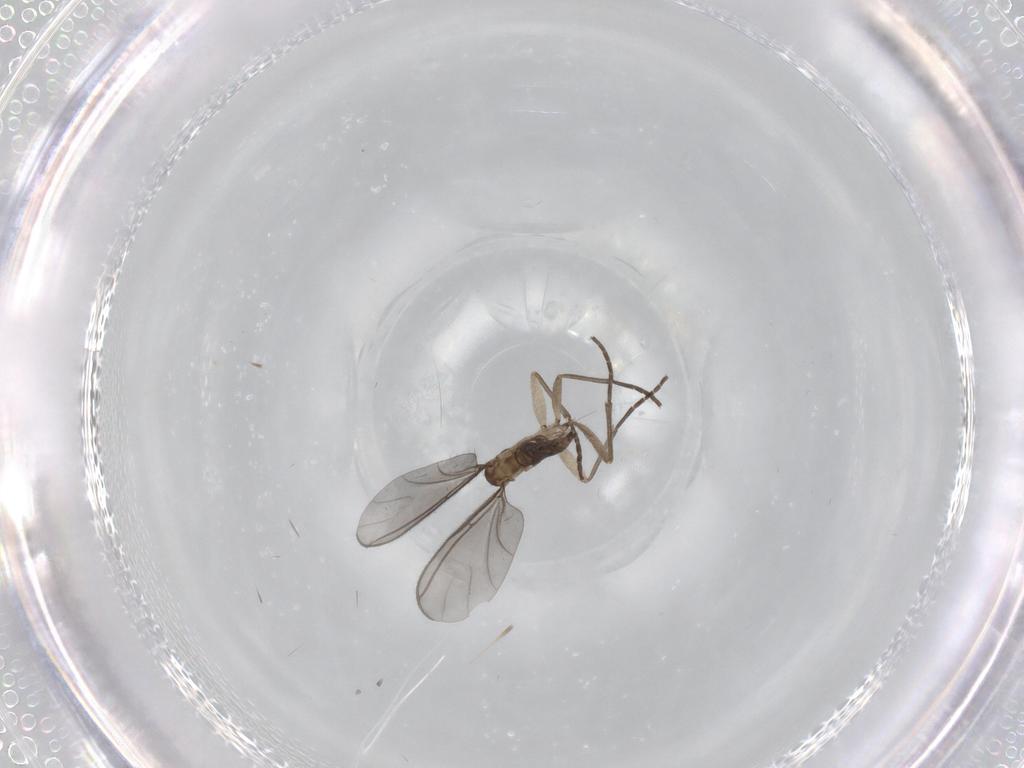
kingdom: Animalia
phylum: Arthropoda
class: Insecta
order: Diptera
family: Sciaridae
